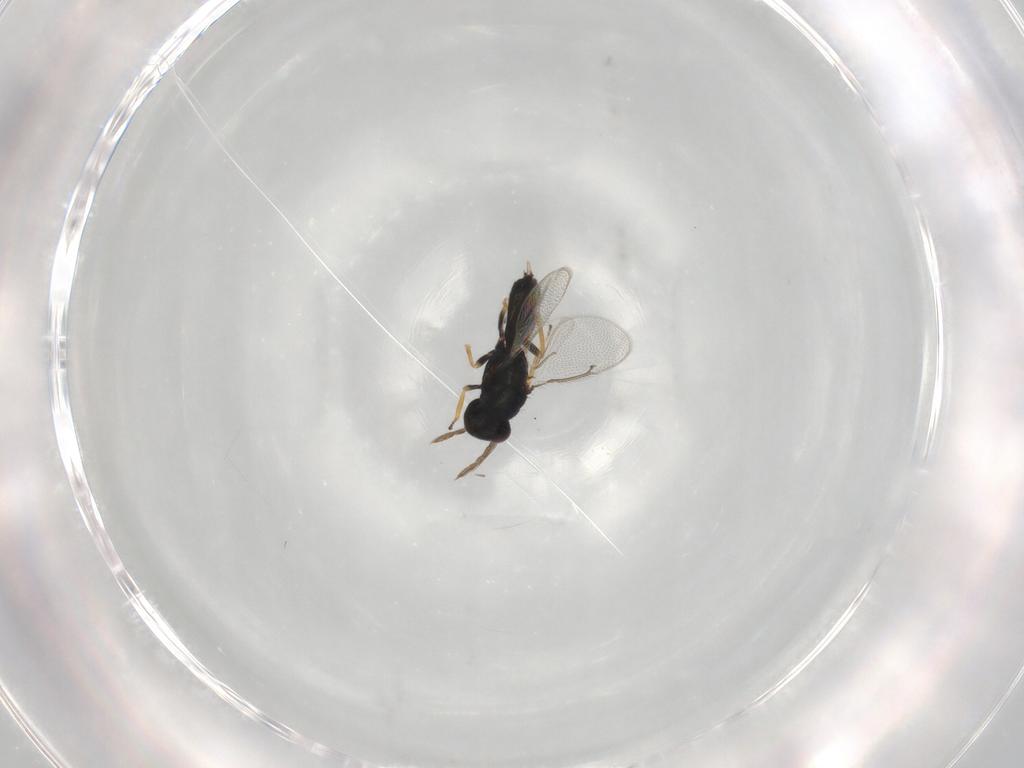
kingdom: Animalia
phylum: Arthropoda
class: Insecta
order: Hymenoptera
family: Eulophidae
